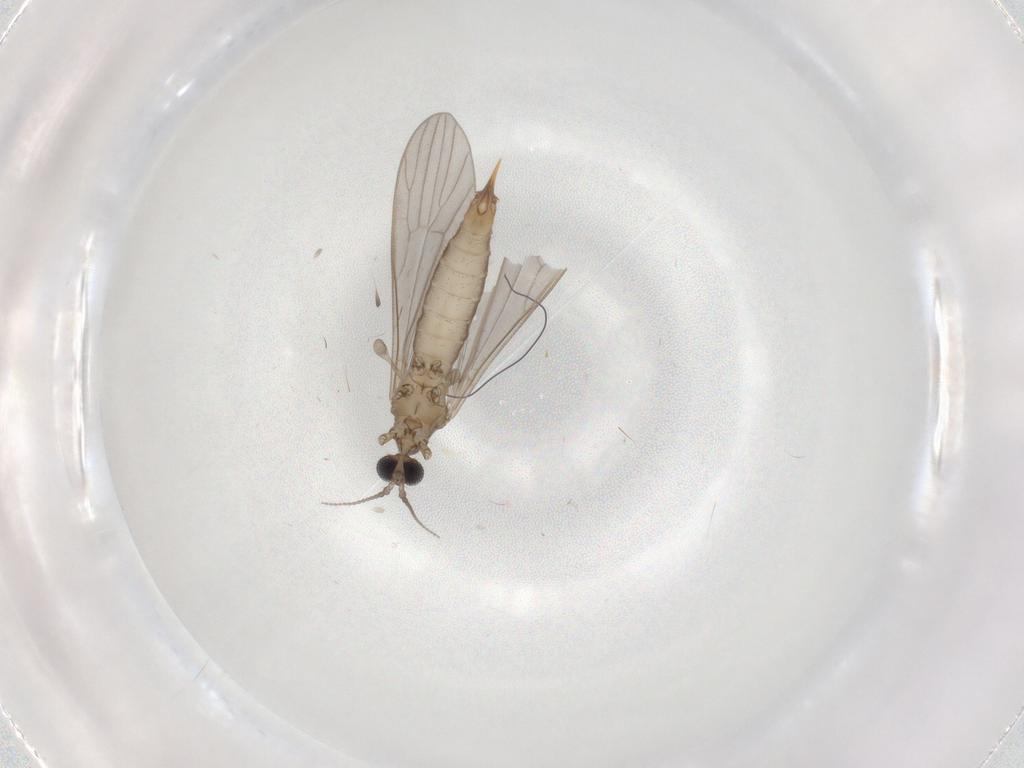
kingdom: Animalia
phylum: Arthropoda
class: Insecta
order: Diptera
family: Limoniidae
